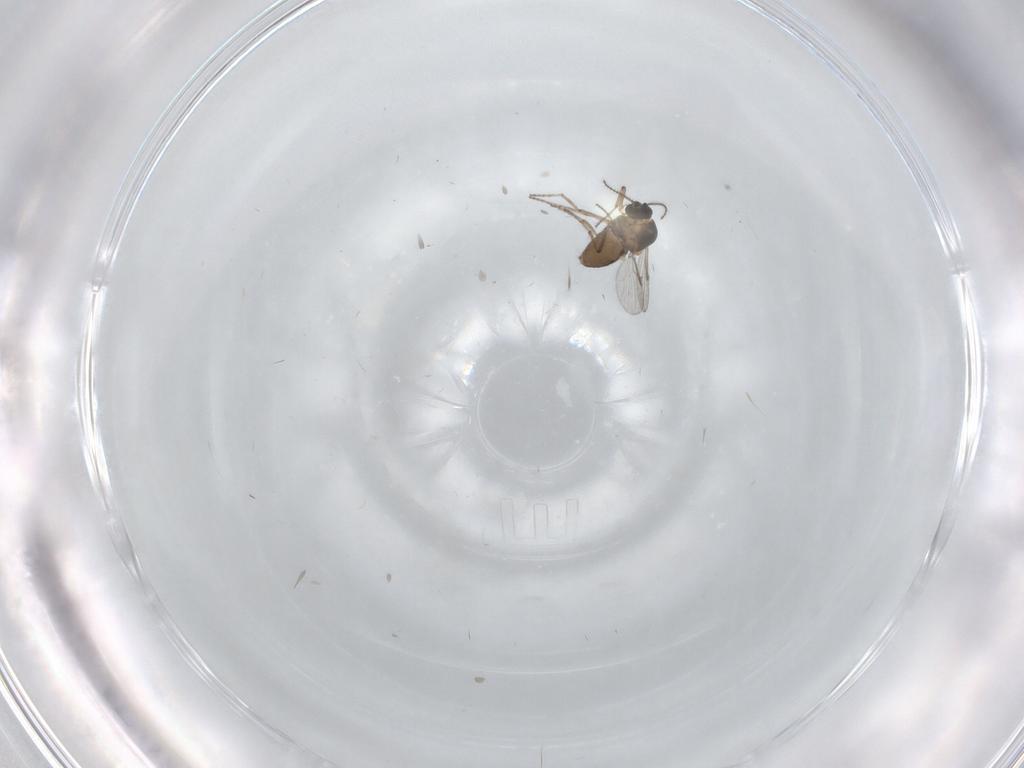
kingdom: Animalia
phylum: Arthropoda
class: Insecta
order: Diptera
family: Ceratopogonidae
